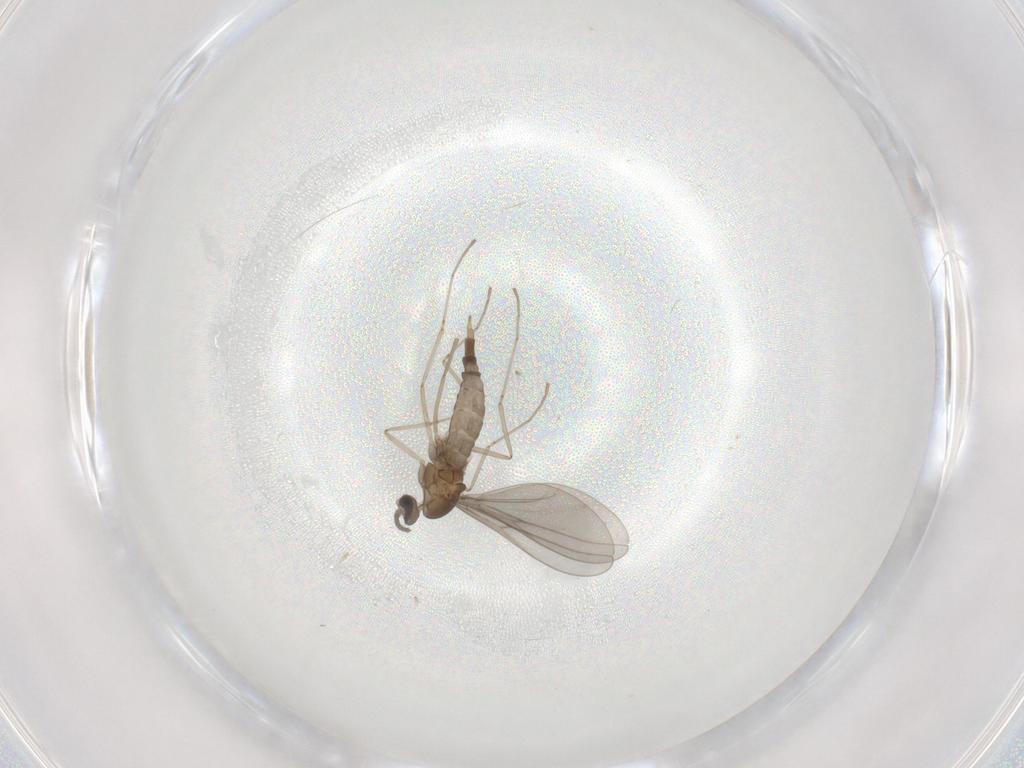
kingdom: Animalia
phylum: Arthropoda
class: Insecta
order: Diptera
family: Cecidomyiidae
